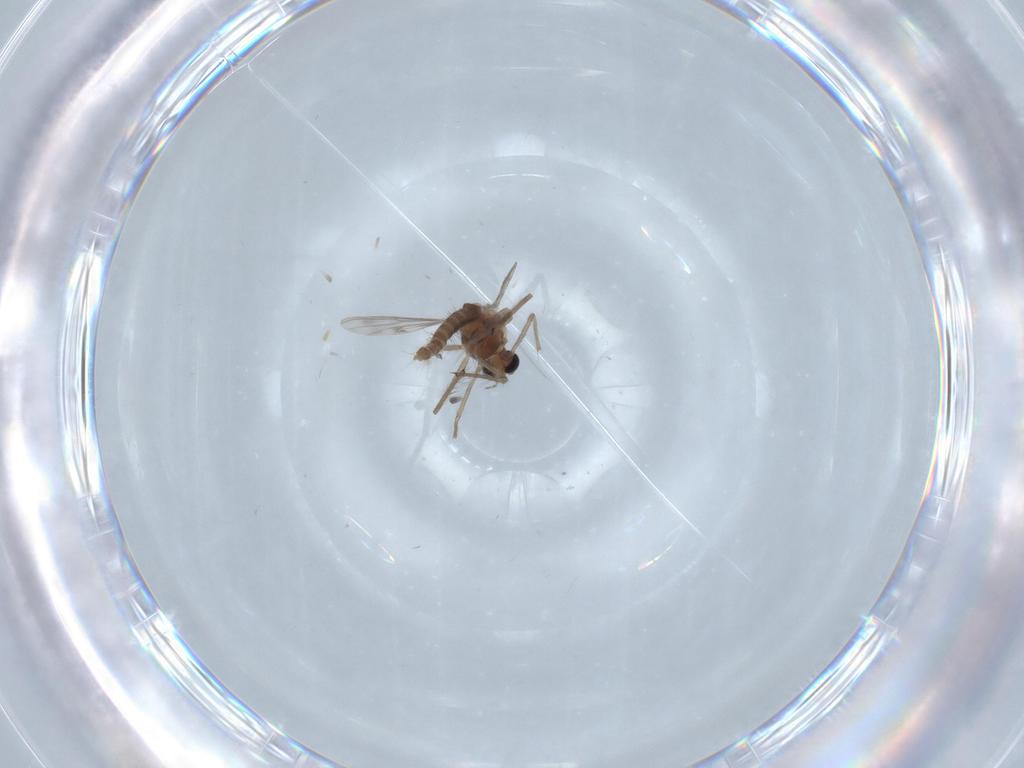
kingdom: Animalia
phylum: Arthropoda
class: Insecta
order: Diptera
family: Chironomidae
